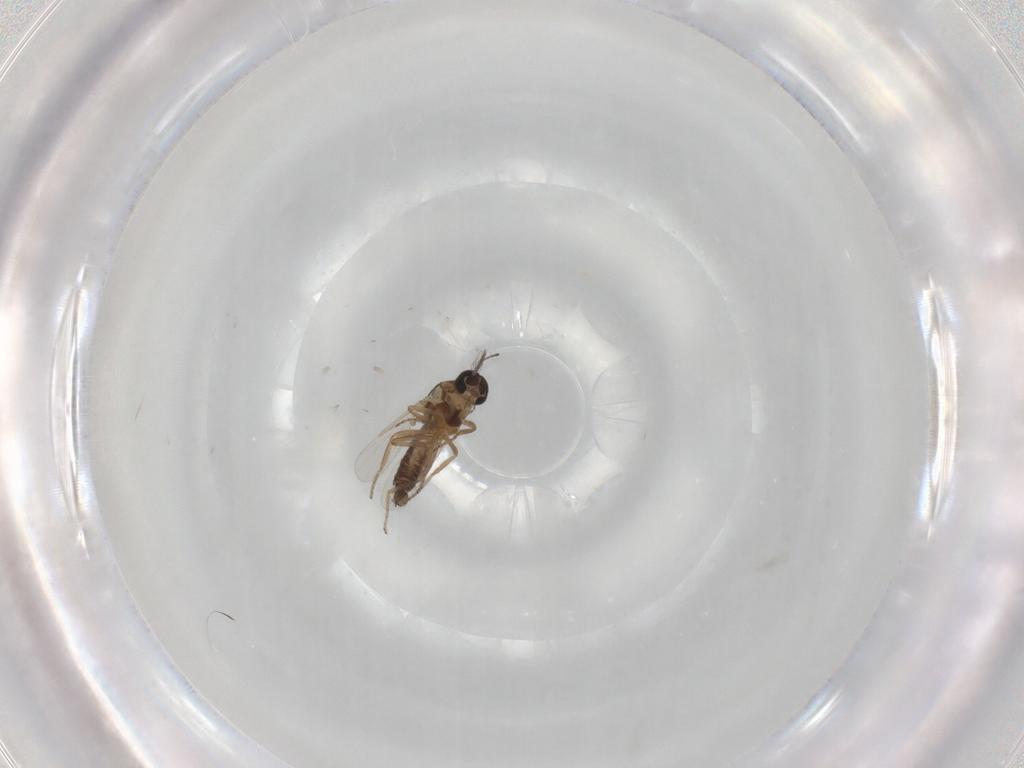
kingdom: Animalia
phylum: Arthropoda
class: Insecta
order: Diptera
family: Ceratopogonidae
